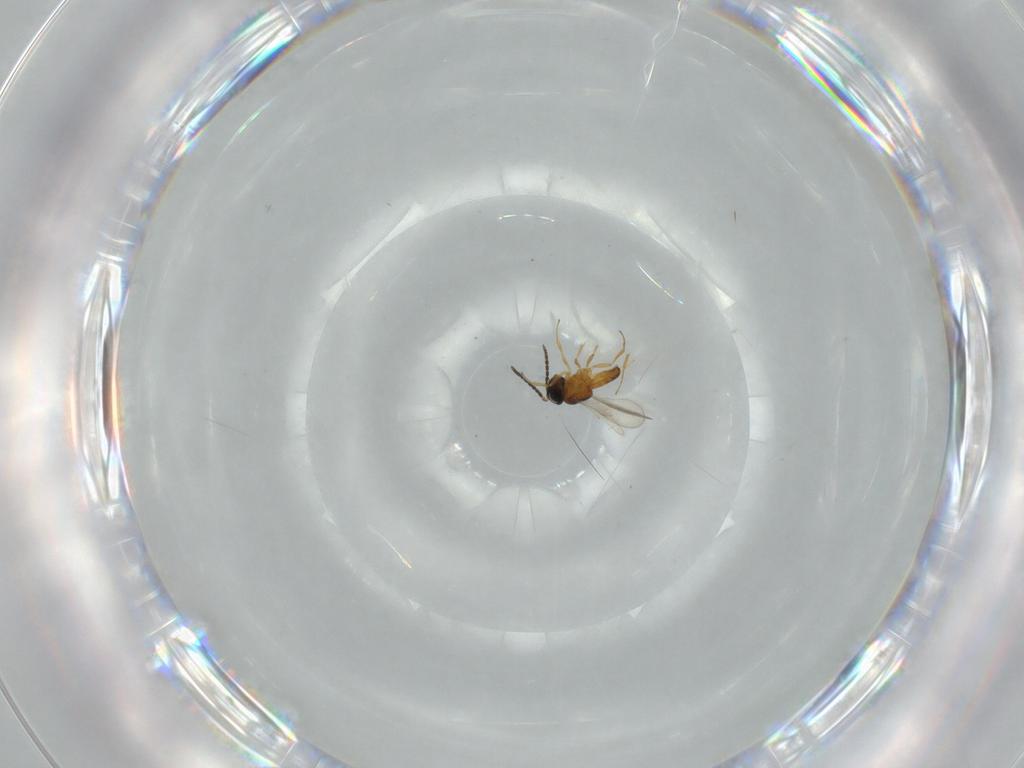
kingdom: Animalia
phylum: Arthropoda
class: Insecta
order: Hymenoptera
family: Scelionidae
